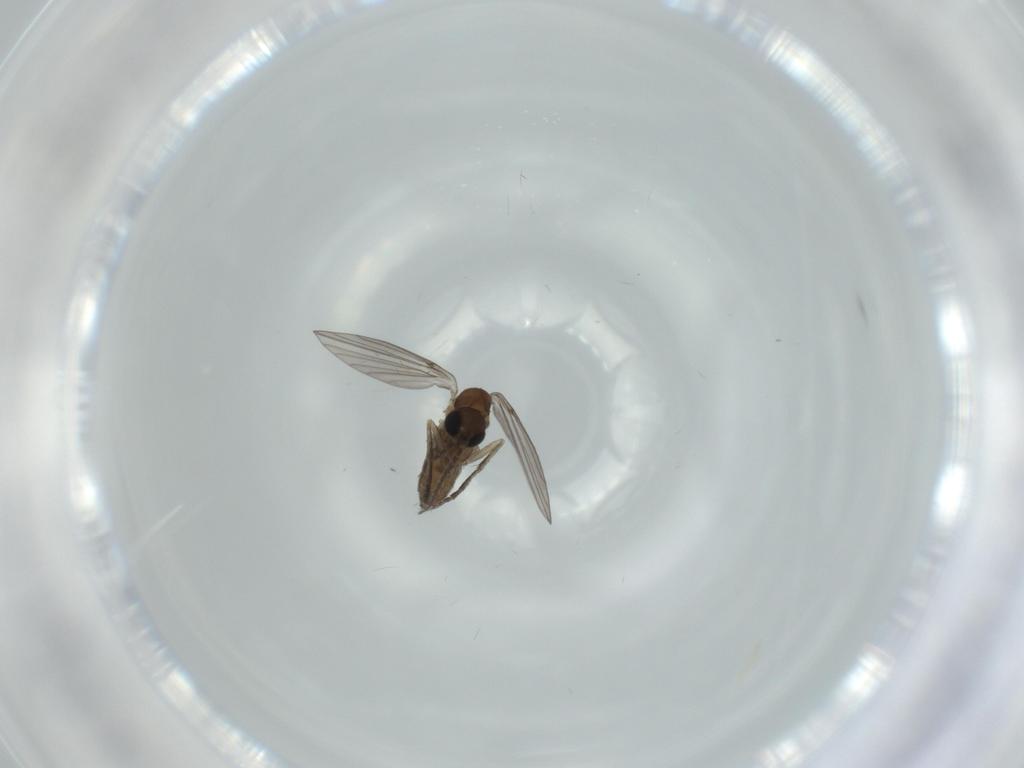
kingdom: Animalia
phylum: Arthropoda
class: Insecta
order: Diptera
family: Psychodidae
